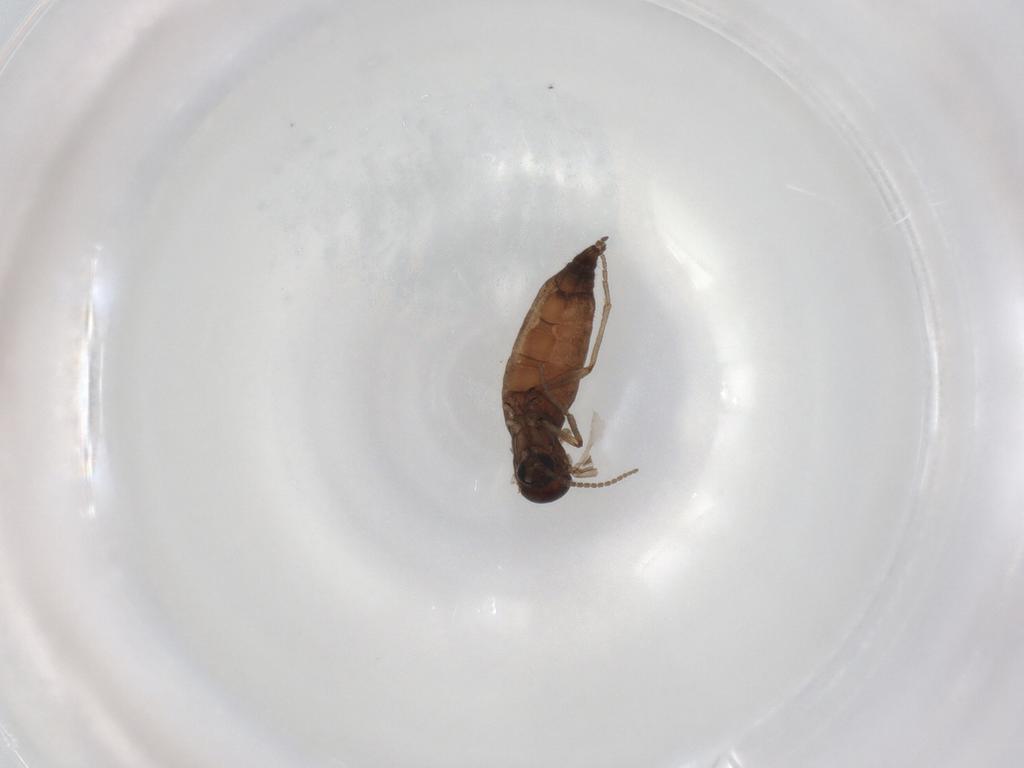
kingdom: Animalia
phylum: Arthropoda
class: Insecta
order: Diptera
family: Sciaridae
